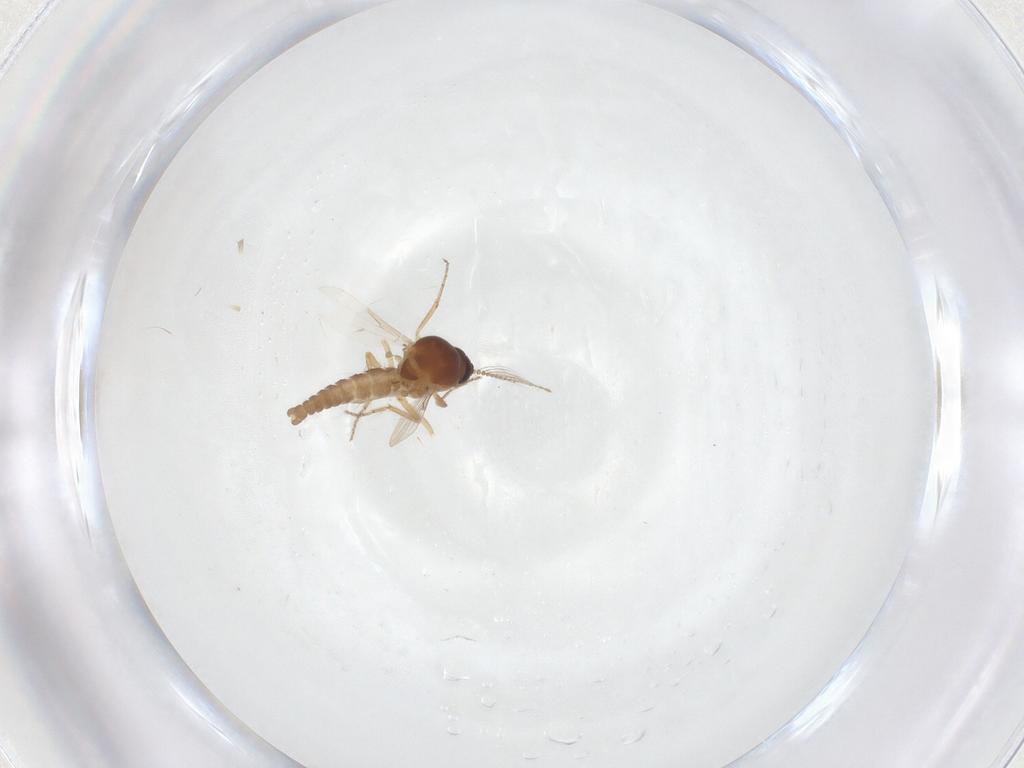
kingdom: Animalia
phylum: Arthropoda
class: Insecta
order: Diptera
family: Ceratopogonidae
